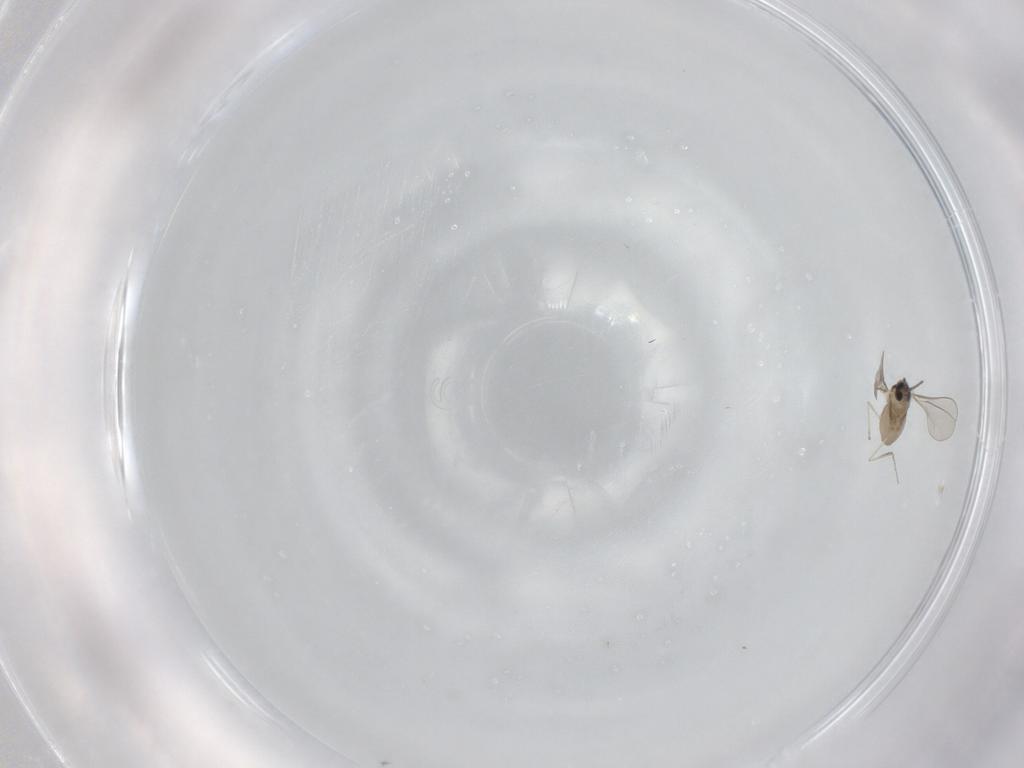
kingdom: Animalia
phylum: Arthropoda
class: Insecta
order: Diptera
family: Cecidomyiidae
